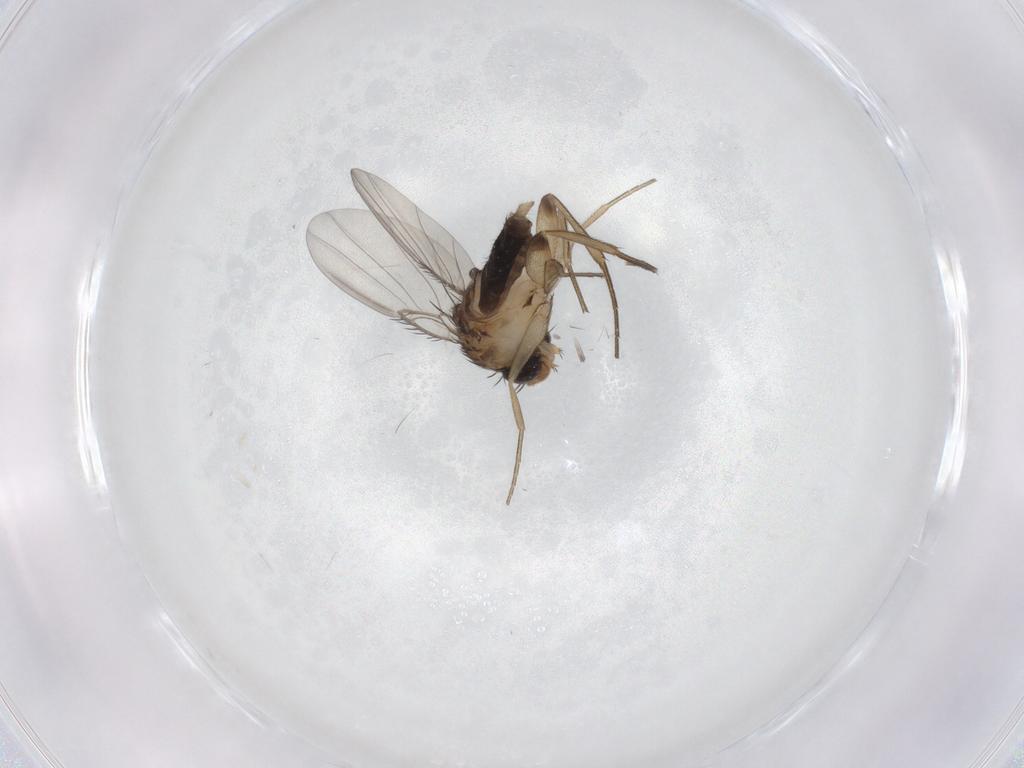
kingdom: Animalia
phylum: Arthropoda
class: Insecta
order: Diptera
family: Phoridae
